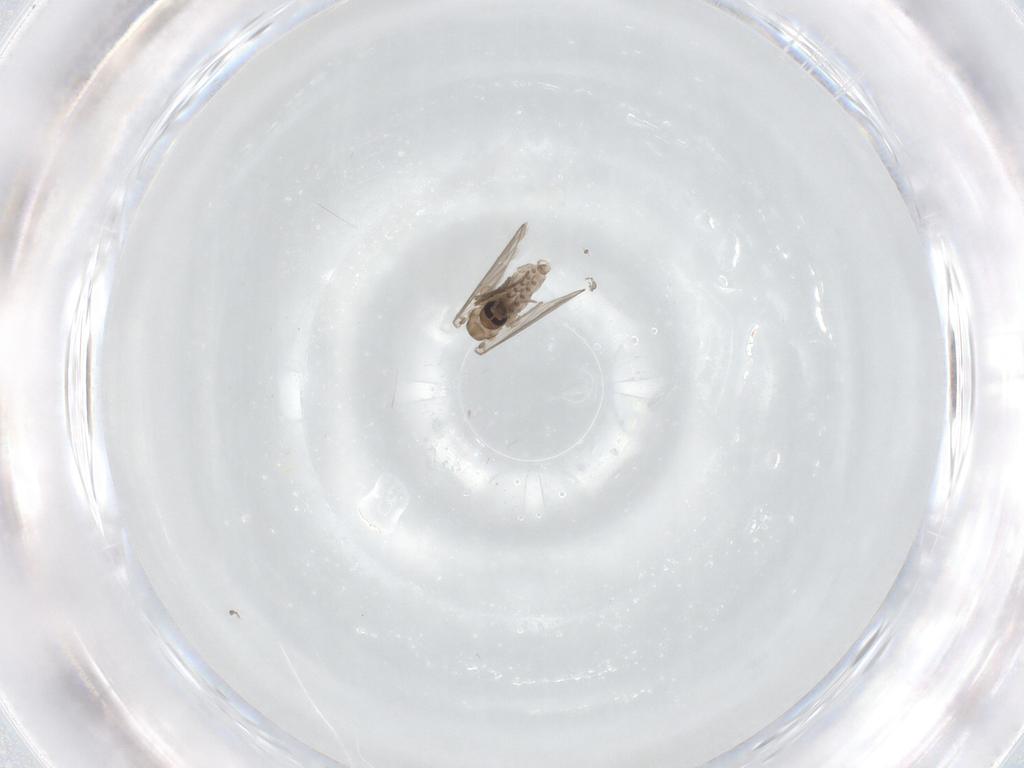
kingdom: Animalia
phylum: Arthropoda
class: Insecta
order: Diptera
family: Psychodidae
